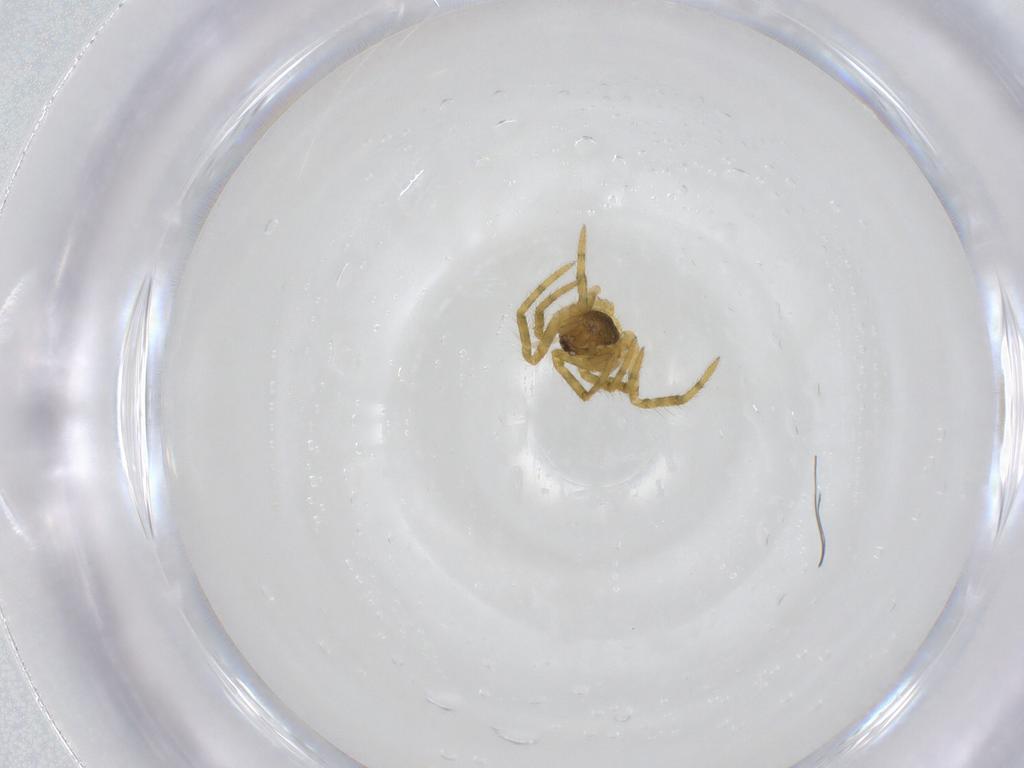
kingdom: Animalia
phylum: Arthropoda
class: Arachnida
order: Araneae
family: Theridiidae
